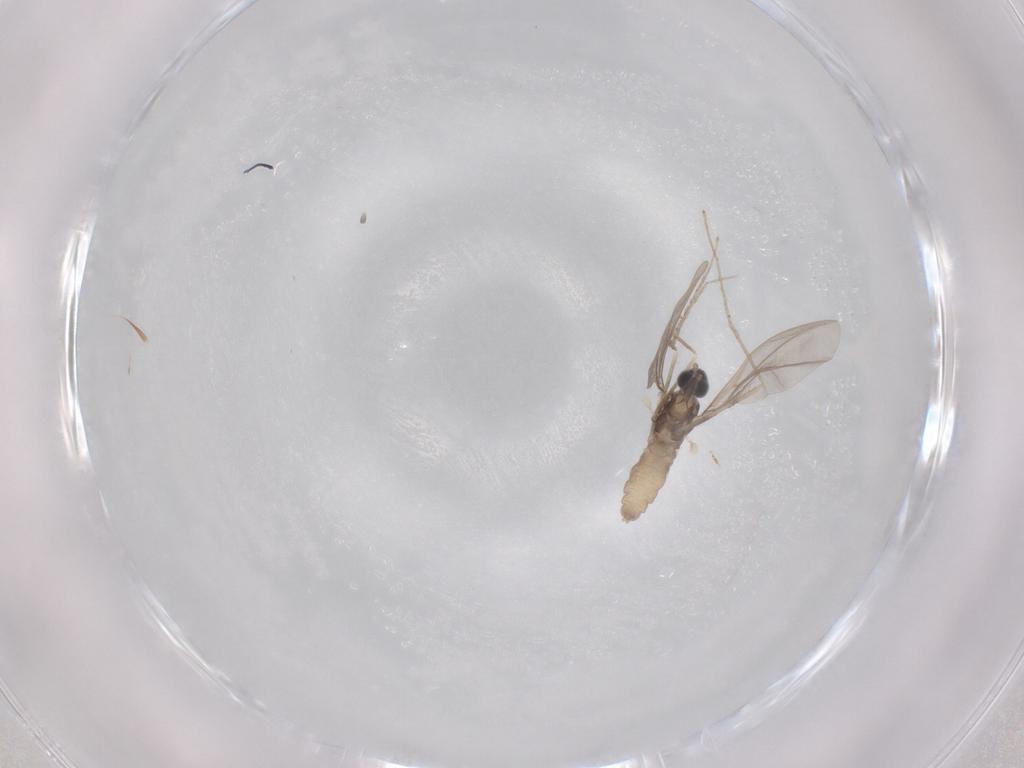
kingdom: Animalia
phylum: Arthropoda
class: Insecta
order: Diptera
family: Cecidomyiidae
